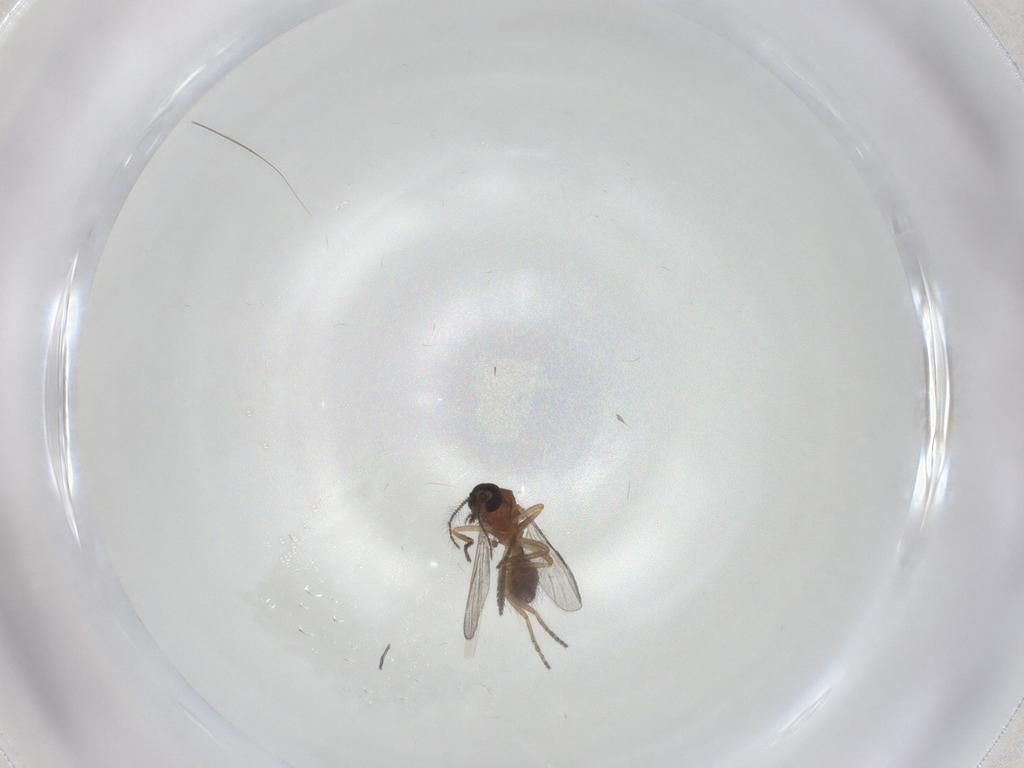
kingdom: Animalia
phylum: Arthropoda
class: Insecta
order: Diptera
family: Ceratopogonidae
